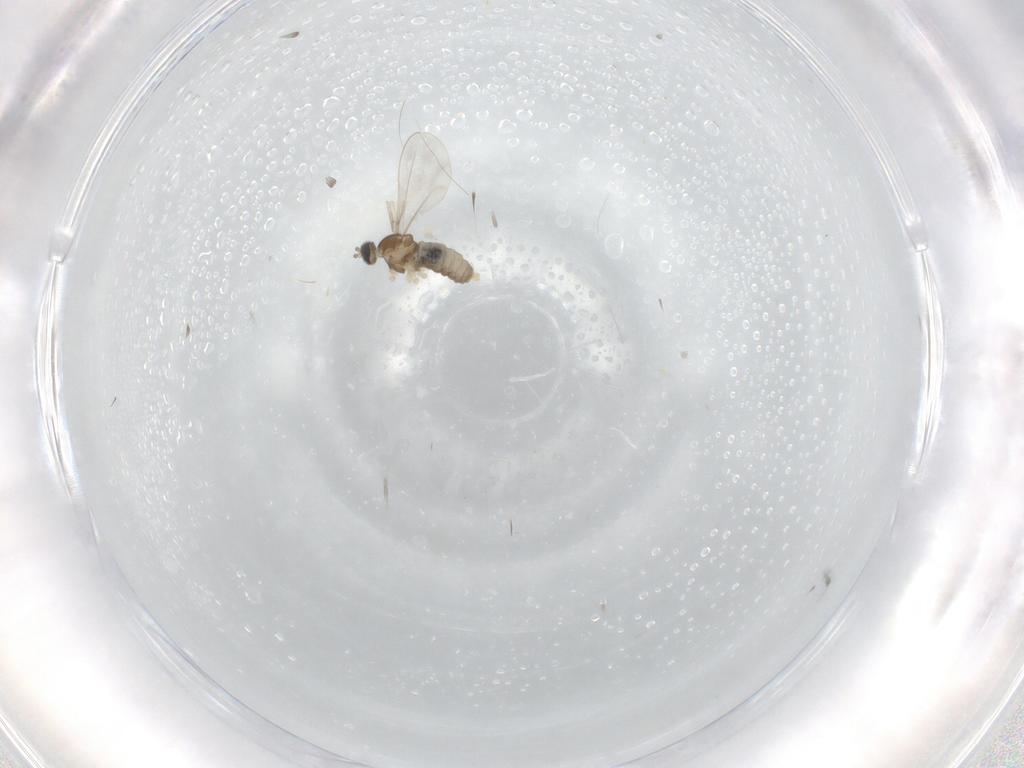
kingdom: Animalia
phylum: Arthropoda
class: Insecta
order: Diptera
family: Cecidomyiidae
